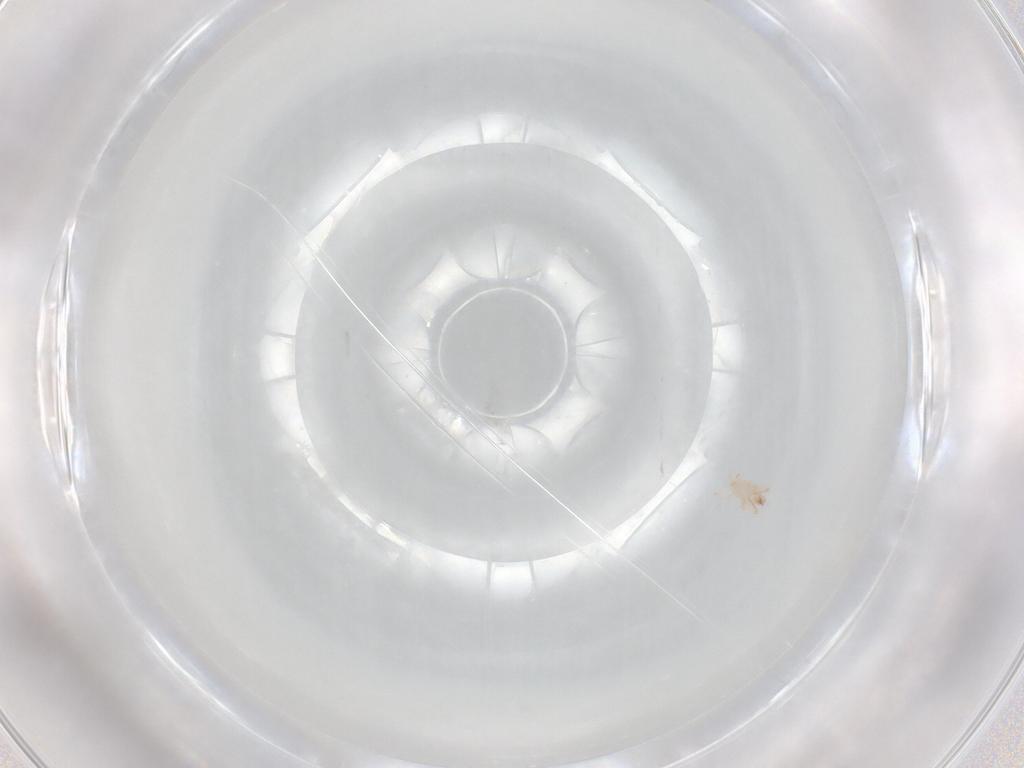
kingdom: Animalia
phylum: Arthropoda
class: Arachnida
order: Trombidiformes
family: Stigmaeidae
